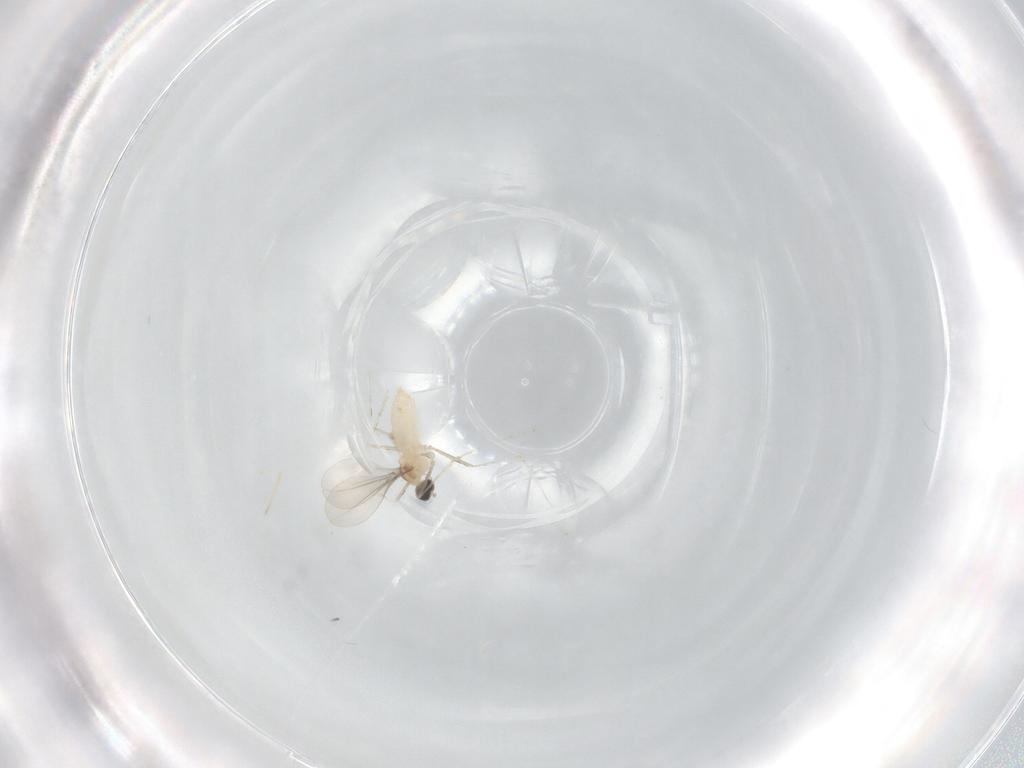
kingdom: Animalia
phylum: Arthropoda
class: Insecta
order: Diptera
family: Cecidomyiidae
